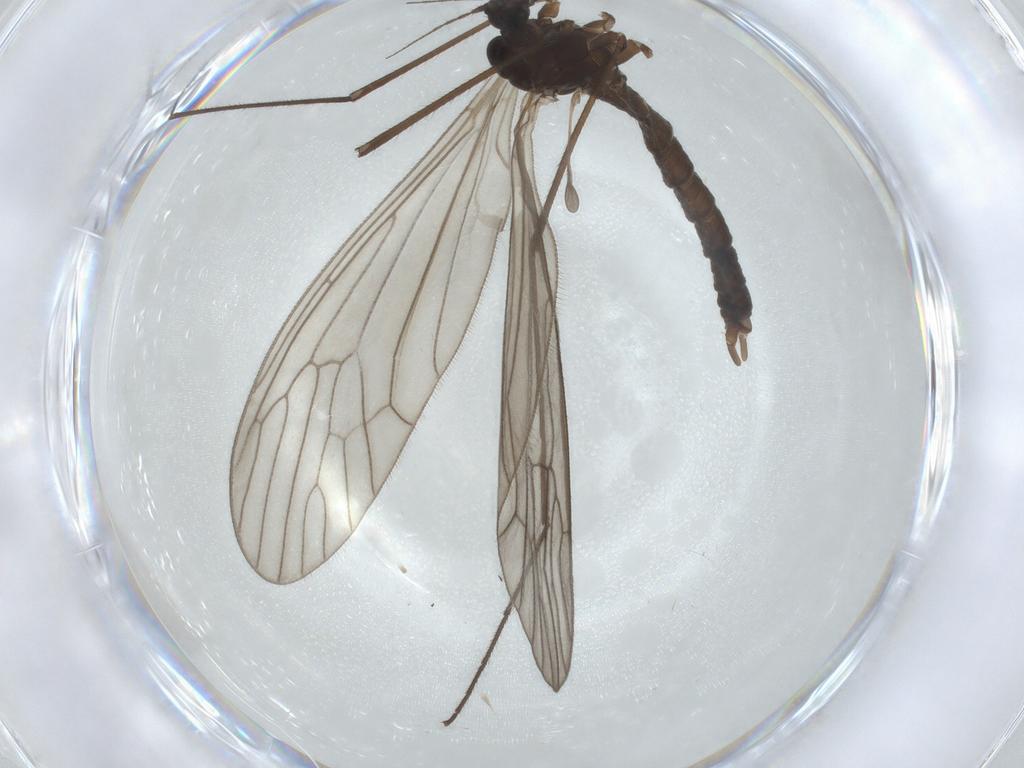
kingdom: Animalia
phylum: Arthropoda
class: Insecta
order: Diptera
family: Trichoceridae
